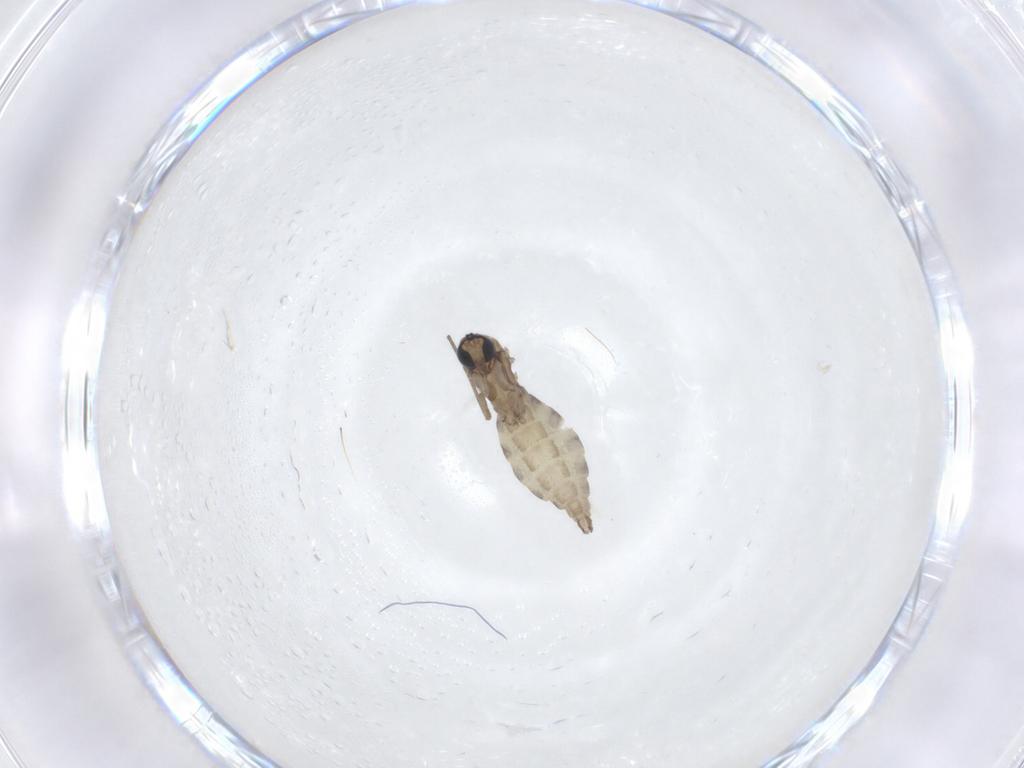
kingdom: Animalia
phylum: Arthropoda
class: Insecta
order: Diptera
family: Sciaridae
